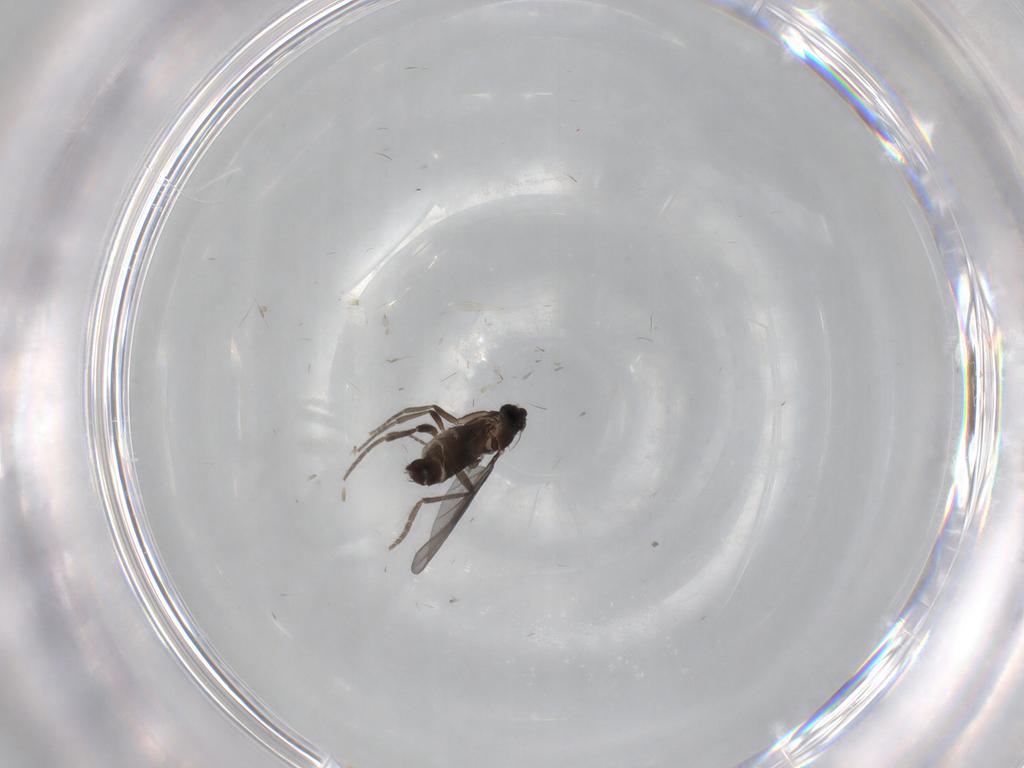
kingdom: Animalia
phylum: Arthropoda
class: Insecta
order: Diptera
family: Phoridae
